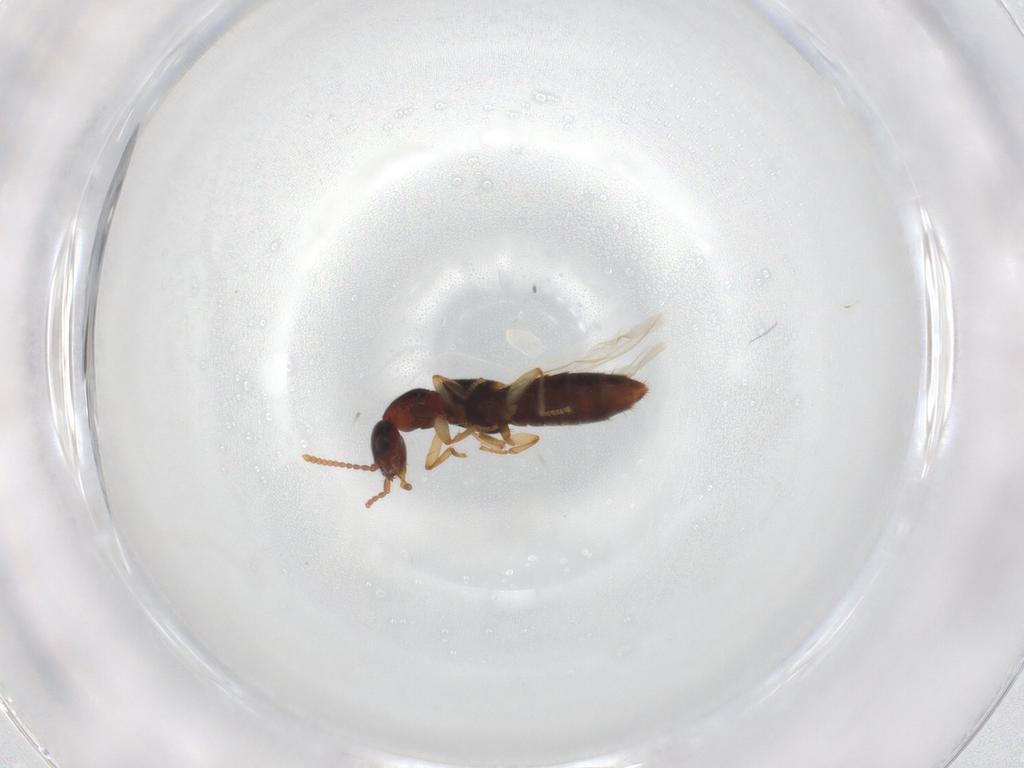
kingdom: Animalia
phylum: Arthropoda
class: Insecta
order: Coleoptera
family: Staphylinidae
